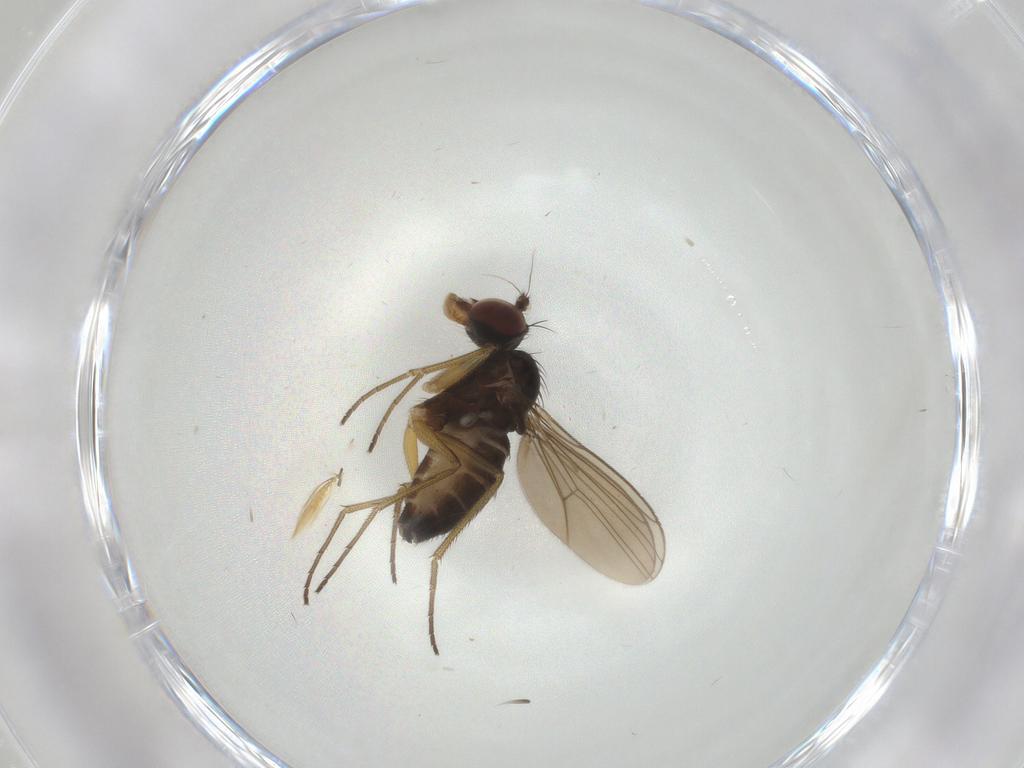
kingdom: Animalia
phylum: Arthropoda
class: Insecta
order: Diptera
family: Dolichopodidae
